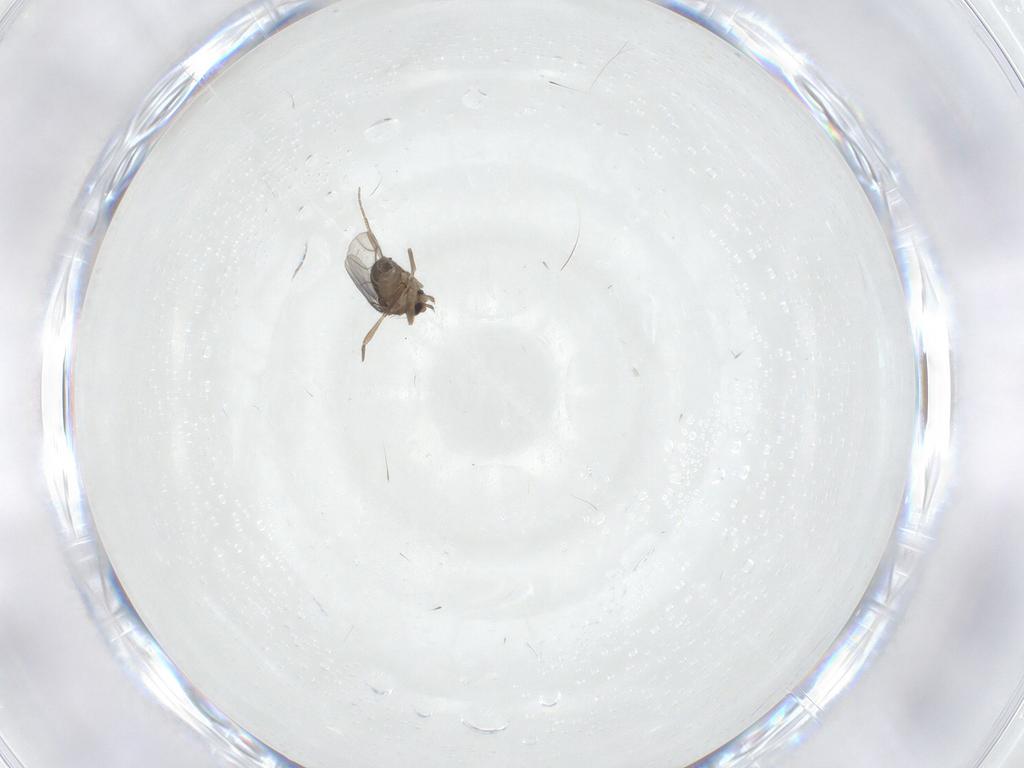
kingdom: Animalia
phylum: Arthropoda
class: Insecta
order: Diptera
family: Phoridae
